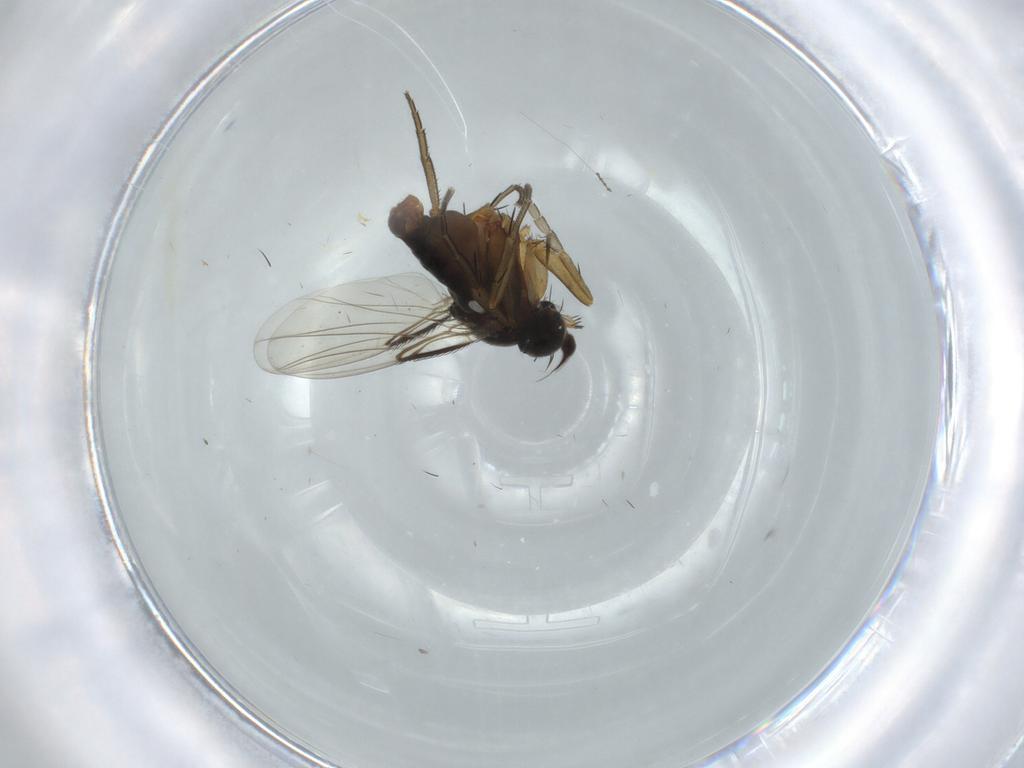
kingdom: Animalia
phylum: Arthropoda
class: Insecta
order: Diptera
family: Phoridae
